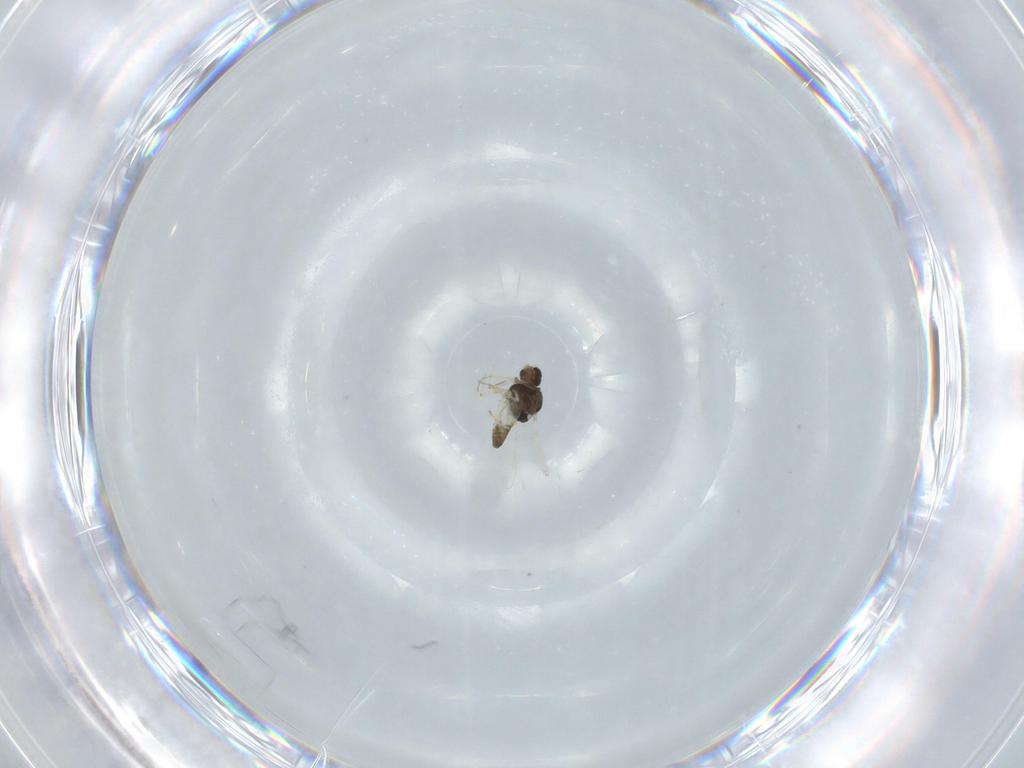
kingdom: Animalia
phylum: Arthropoda
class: Insecta
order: Diptera
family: Chironomidae
